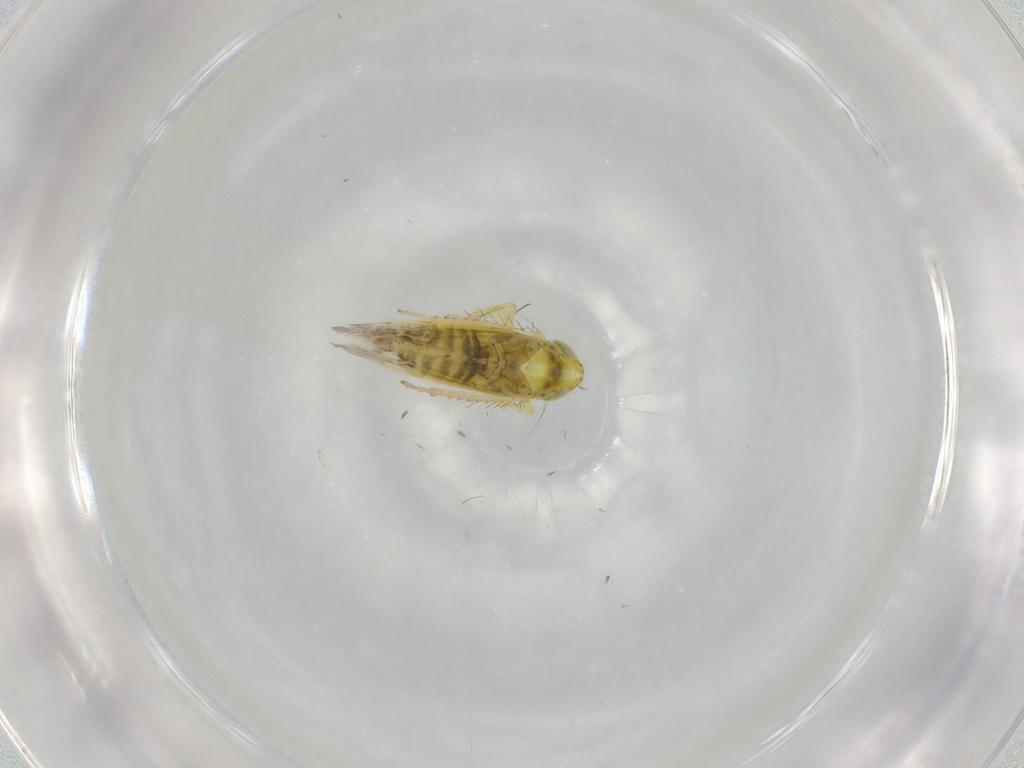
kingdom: Animalia
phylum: Arthropoda
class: Insecta
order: Hemiptera
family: Cicadellidae
